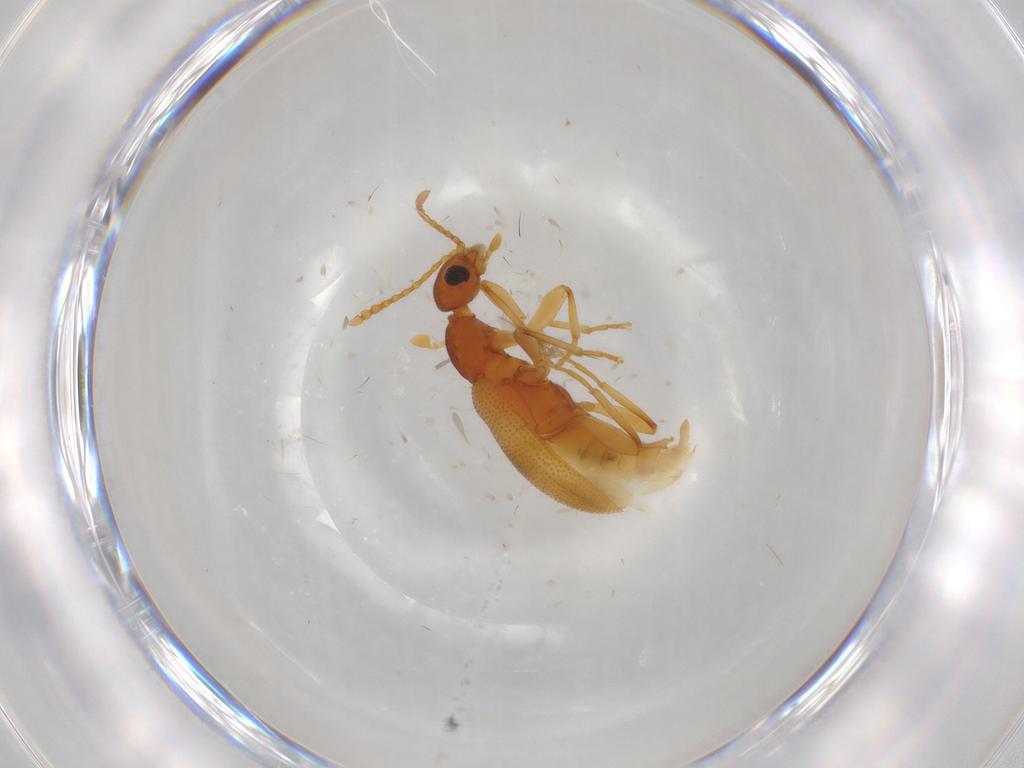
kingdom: Animalia
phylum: Arthropoda
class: Insecta
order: Coleoptera
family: Anthicidae
